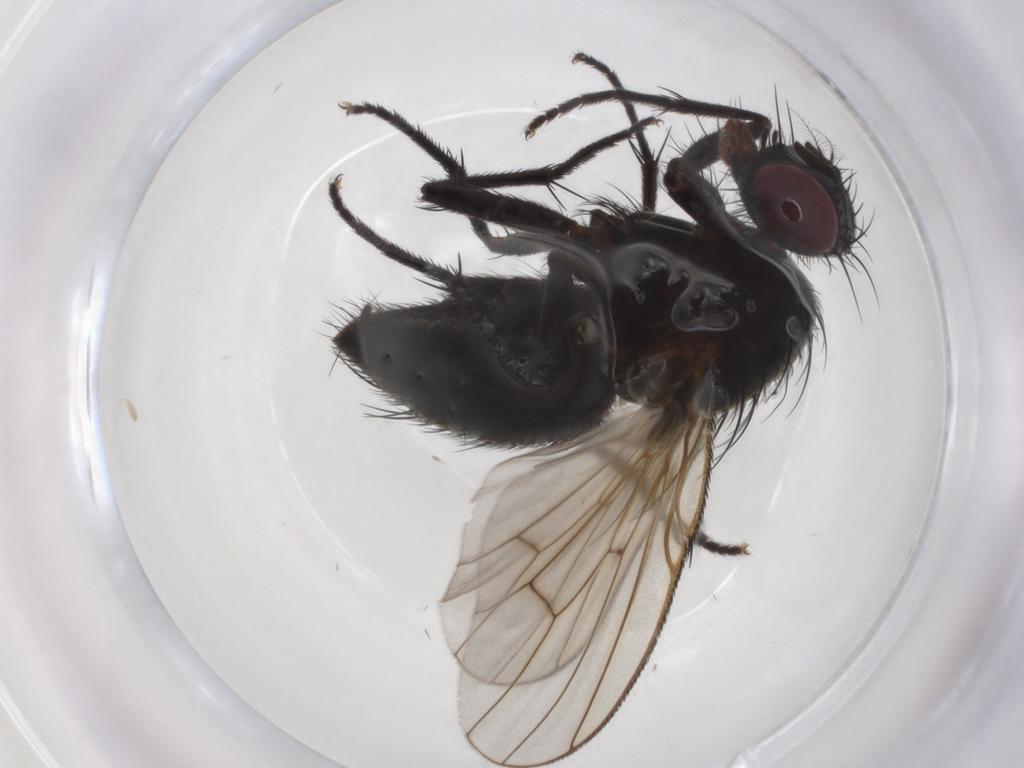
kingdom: Animalia
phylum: Arthropoda
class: Insecta
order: Diptera
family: Muscidae
